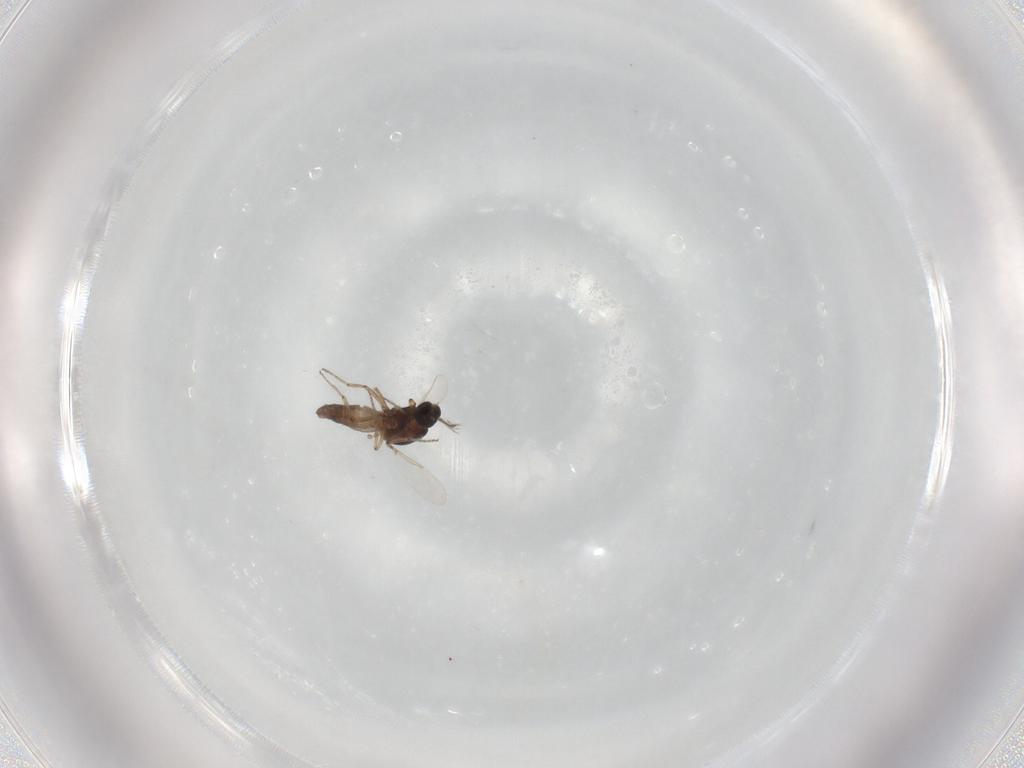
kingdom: Animalia
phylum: Arthropoda
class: Insecta
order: Diptera
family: Ceratopogonidae
